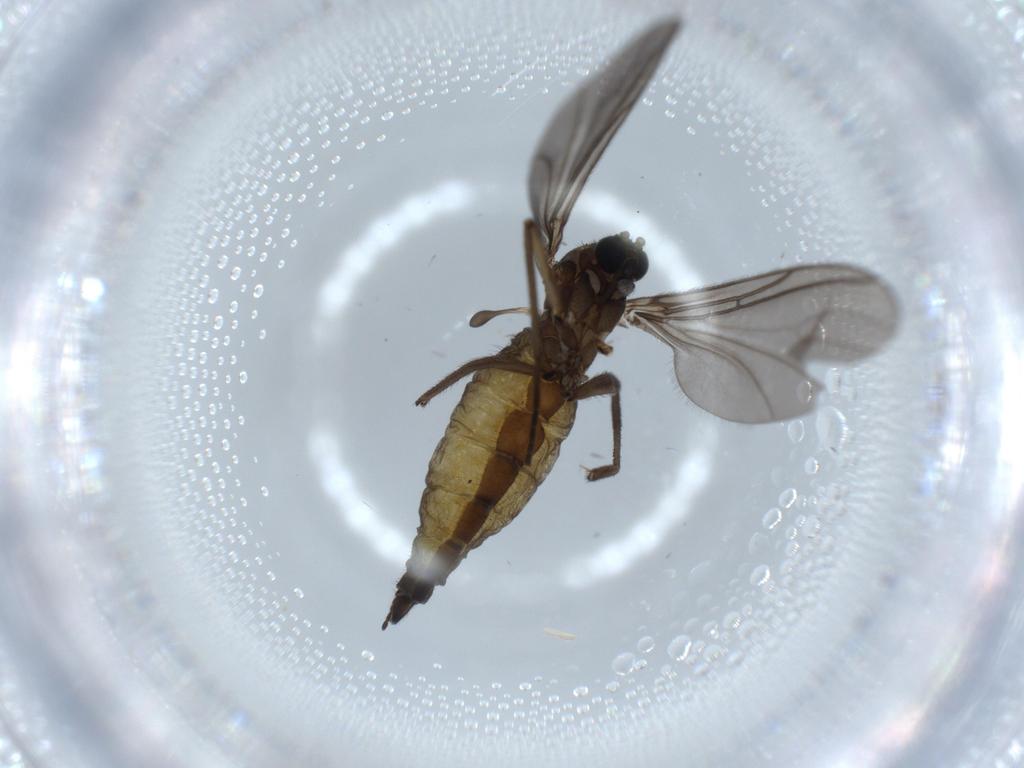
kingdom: Animalia
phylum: Arthropoda
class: Insecta
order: Diptera
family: Sciaridae
